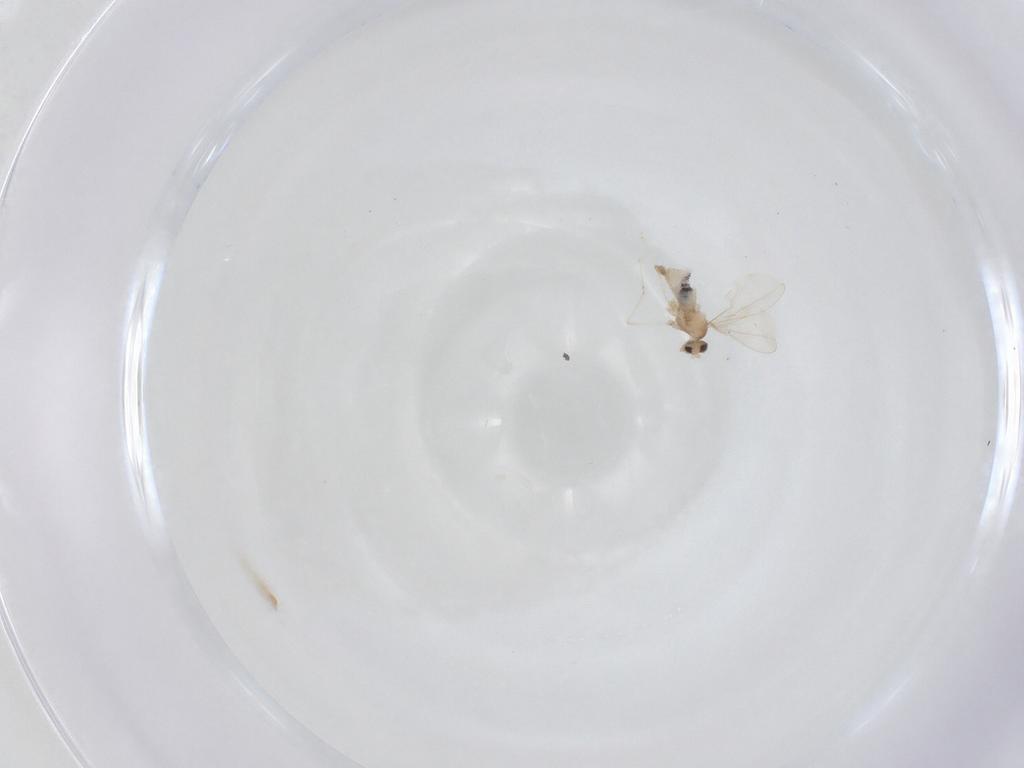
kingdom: Animalia
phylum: Arthropoda
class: Insecta
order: Diptera
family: Cecidomyiidae
